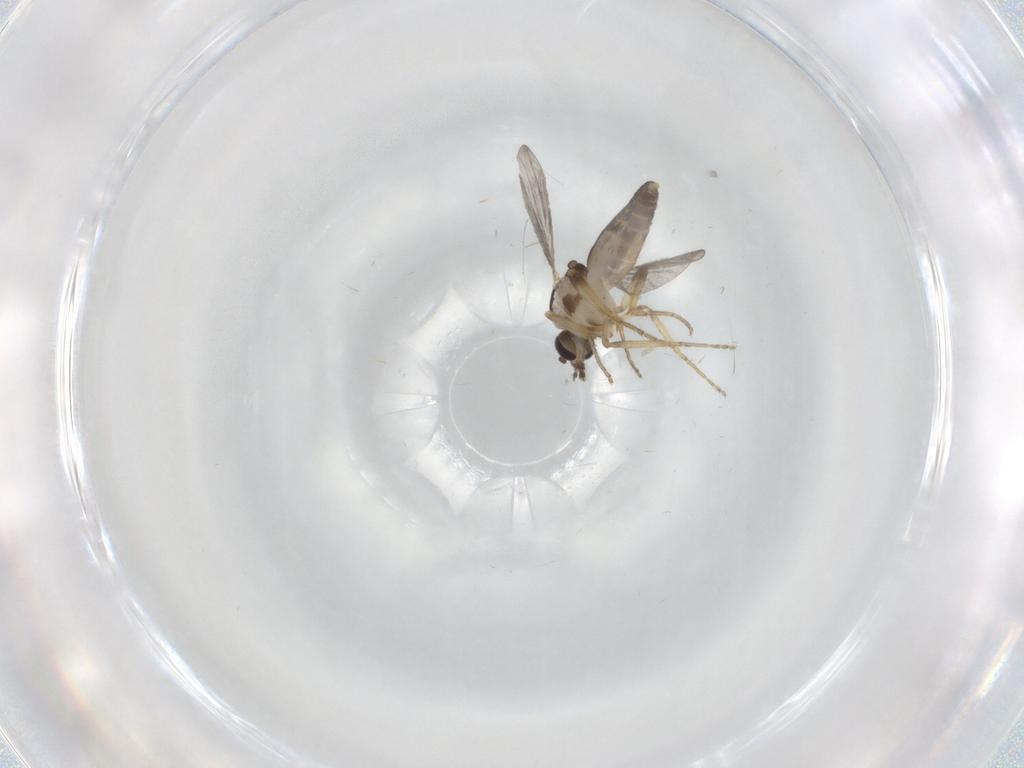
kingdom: Animalia
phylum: Arthropoda
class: Insecta
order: Diptera
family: Ceratopogonidae
